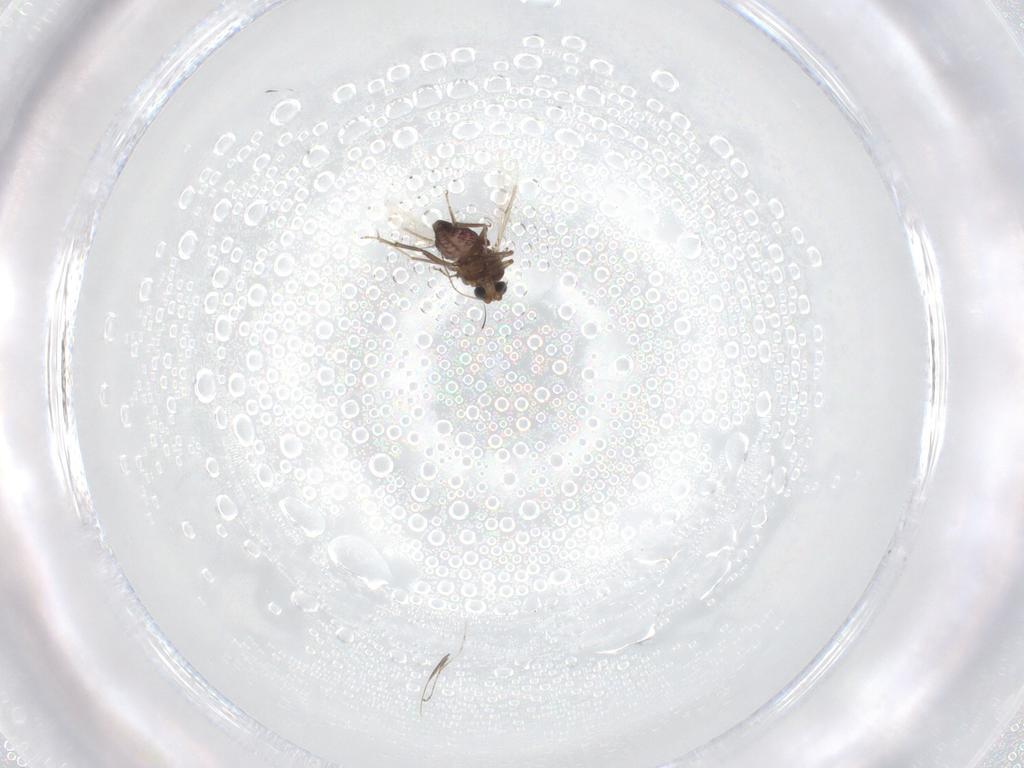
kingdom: Animalia
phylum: Arthropoda
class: Insecta
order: Diptera
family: Ceratopogonidae
